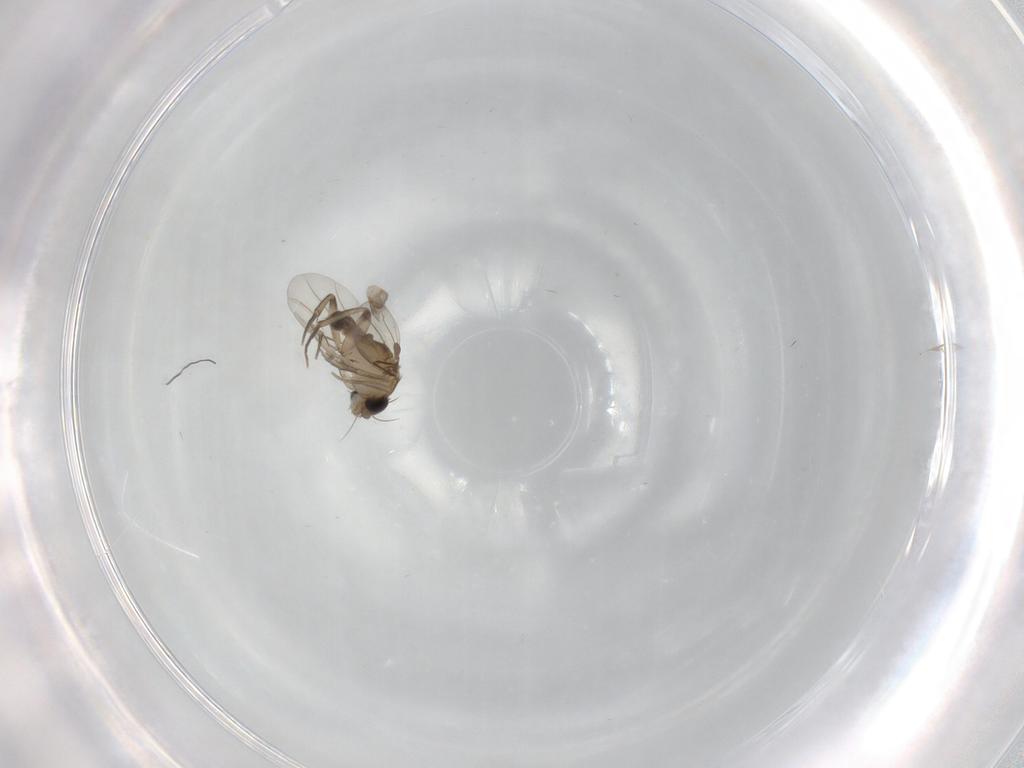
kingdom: Animalia
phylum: Arthropoda
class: Insecta
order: Diptera
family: Phoridae
